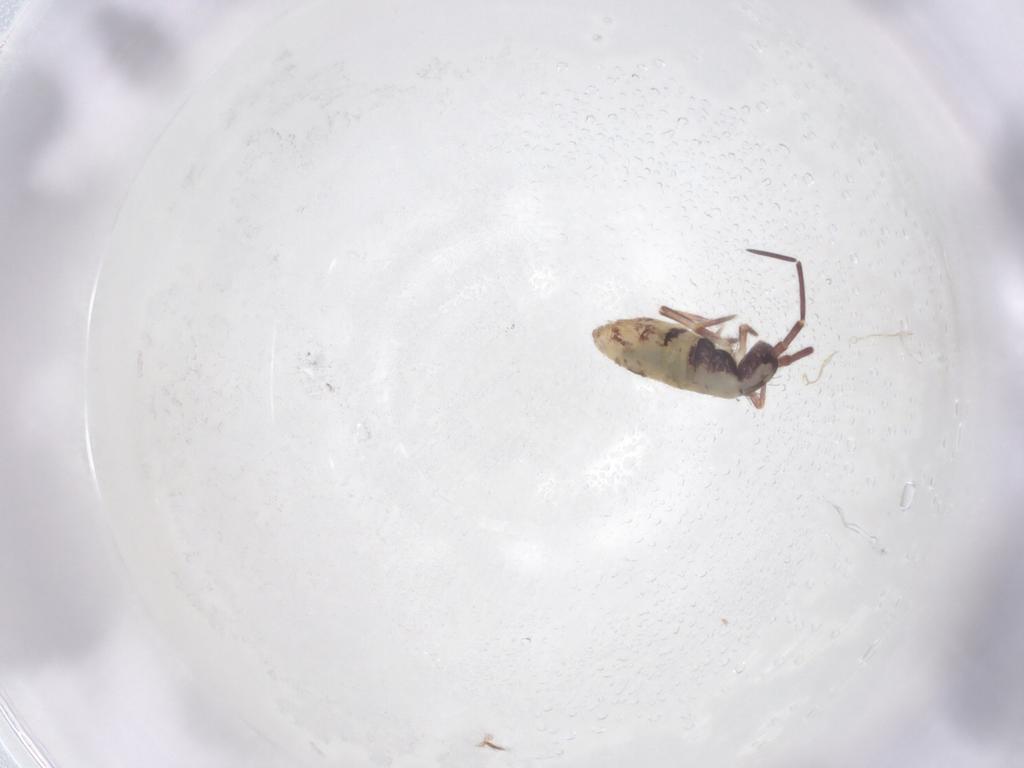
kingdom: Animalia
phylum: Arthropoda
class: Collembola
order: Entomobryomorpha
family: Entomobryidae
